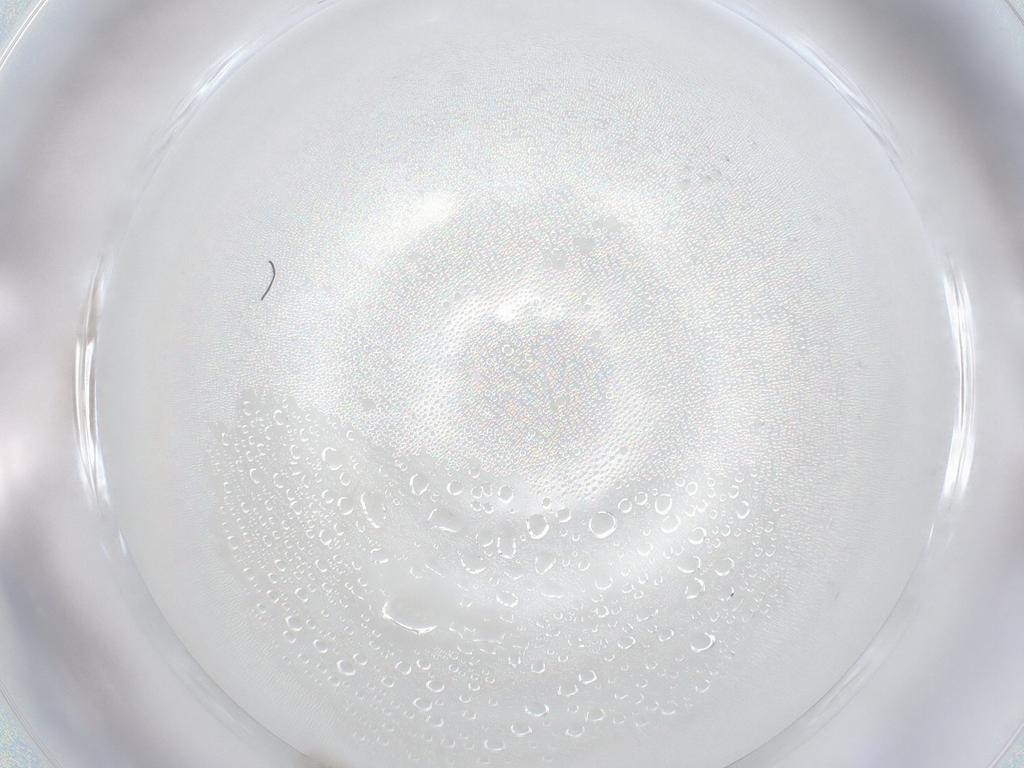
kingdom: Animalia
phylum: Arthropoda
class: Insecta
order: Hymenoptera
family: Mymaridae
